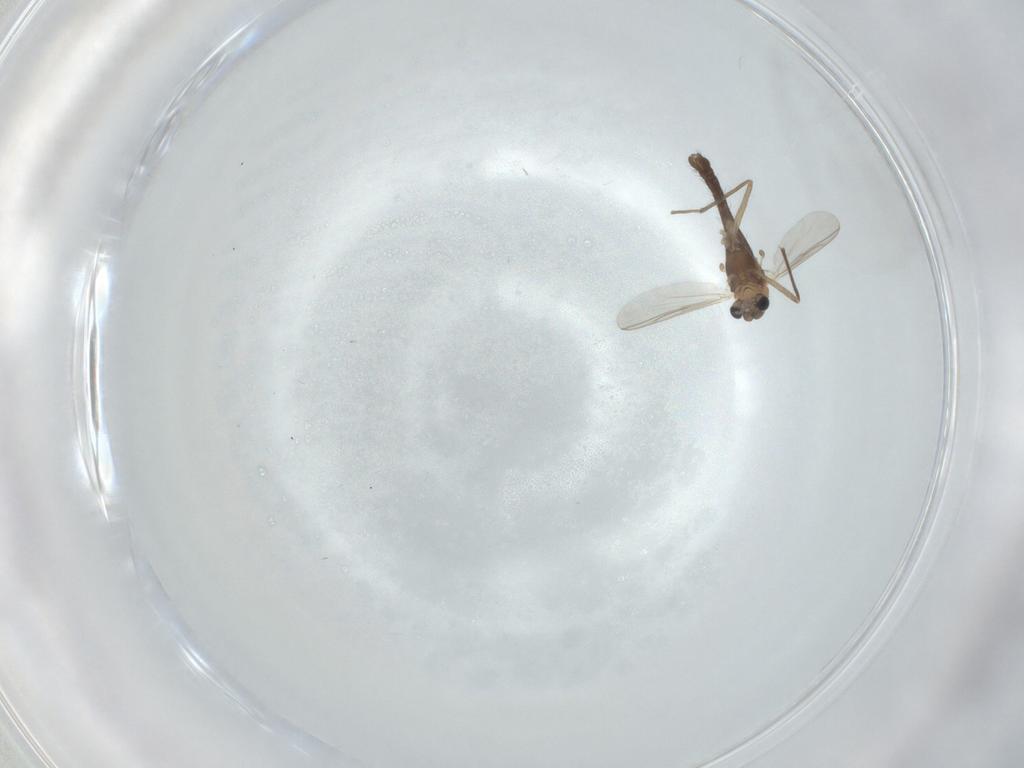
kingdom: Animalia
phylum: Arthropoda
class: Insecta
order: Diptera
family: Chironomidae
